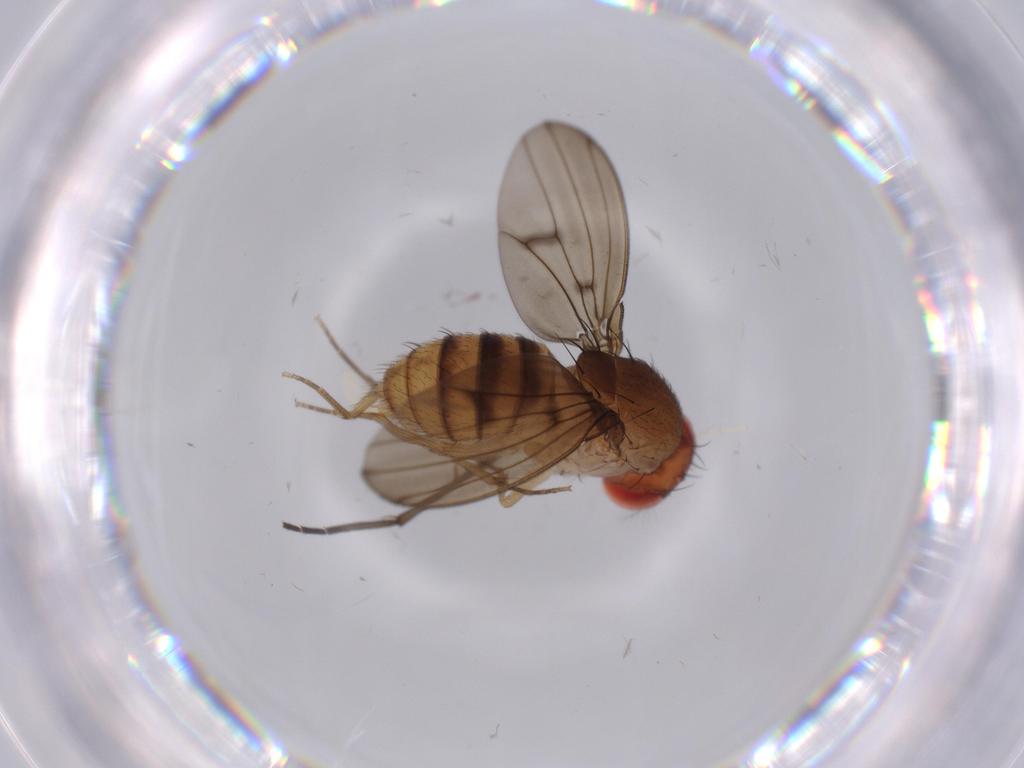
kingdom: Animalia
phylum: Arthropoda
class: Insecta
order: Diptera
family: Drosophilidae
